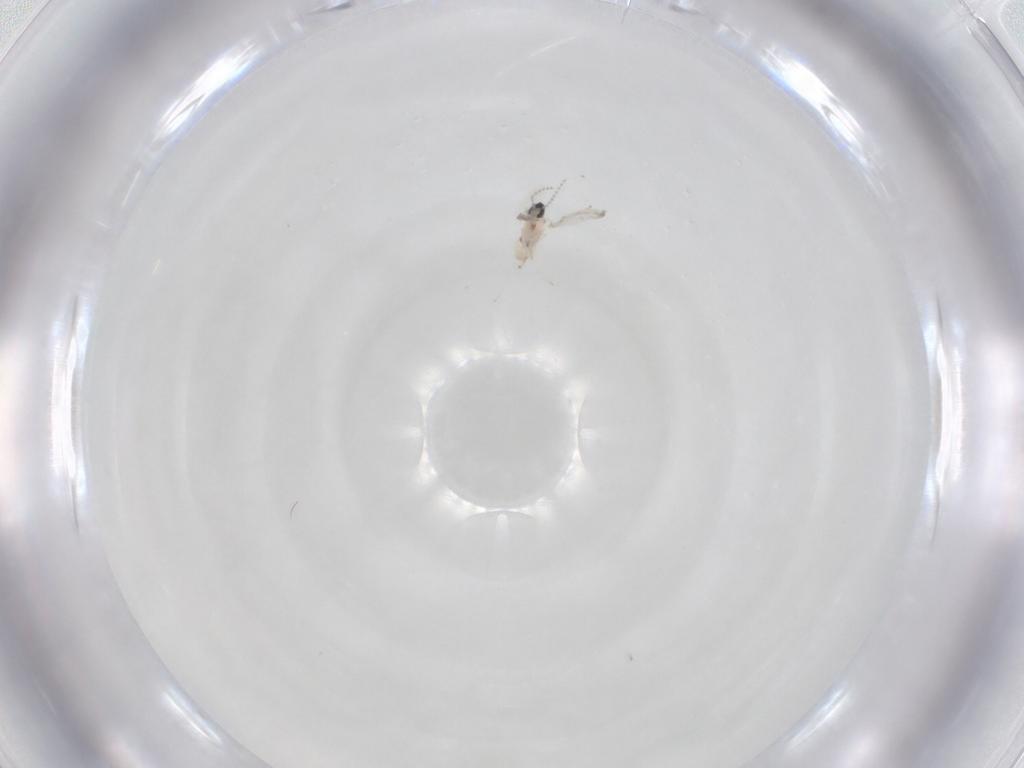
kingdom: Animalia
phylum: Arthropoda
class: Insecta
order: Diptera
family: Cecidomyiidae
